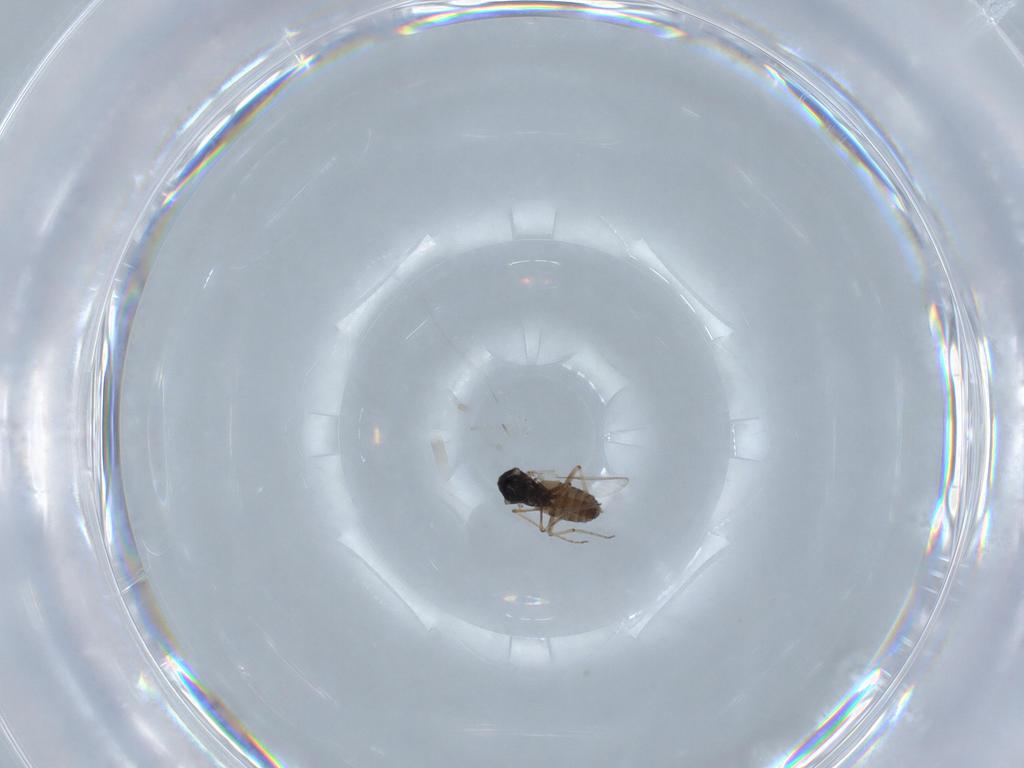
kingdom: Animalia
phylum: Arthropoda
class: Insecta
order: Diptera
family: Ceratopogonidae
